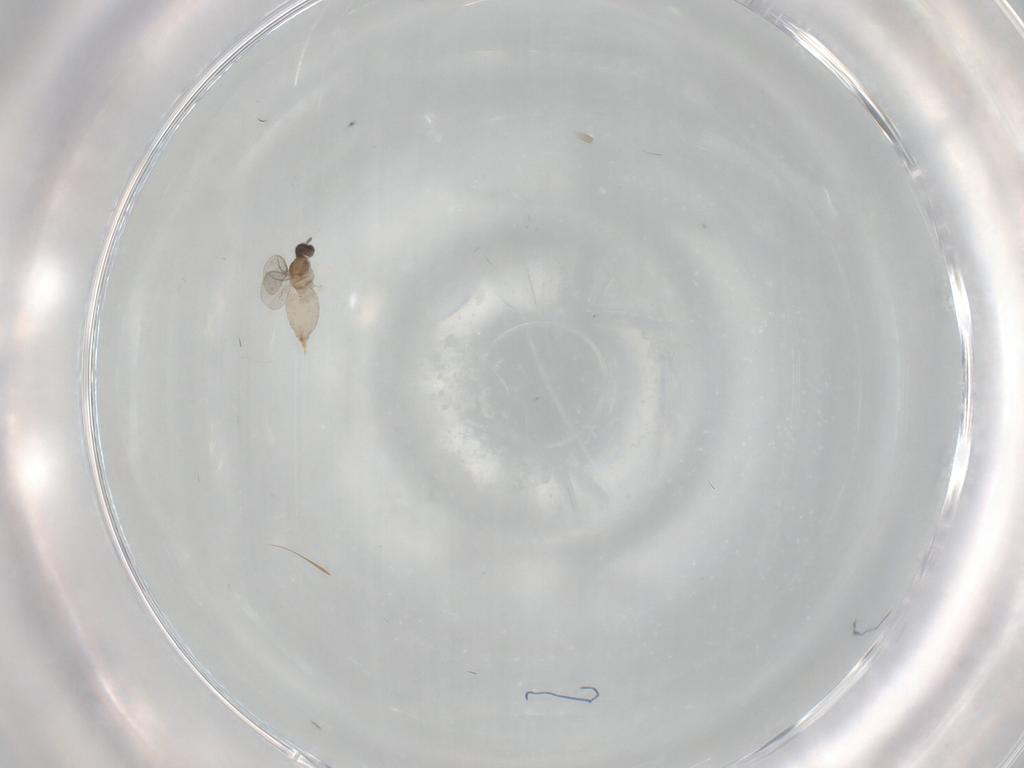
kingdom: Animalia
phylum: Arthropoda
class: Insecta
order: Diptera
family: Cecidomyiidae
